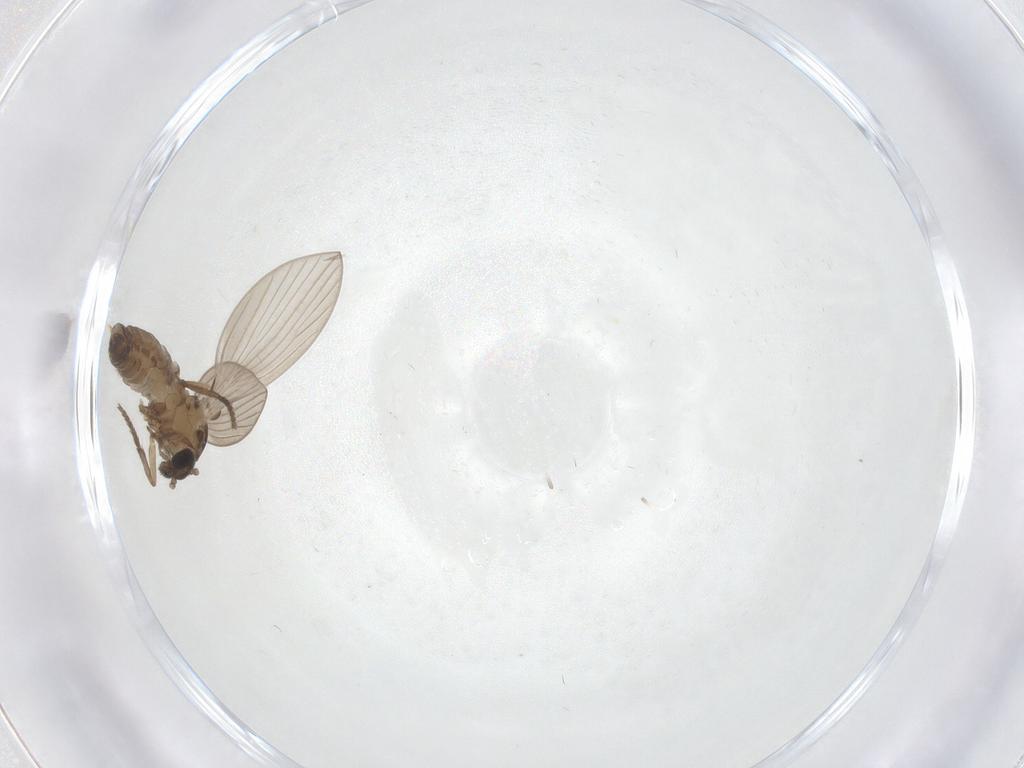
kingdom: Animalia
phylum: Arthropoda
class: Insecta
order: Diptera
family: Psychodidae
